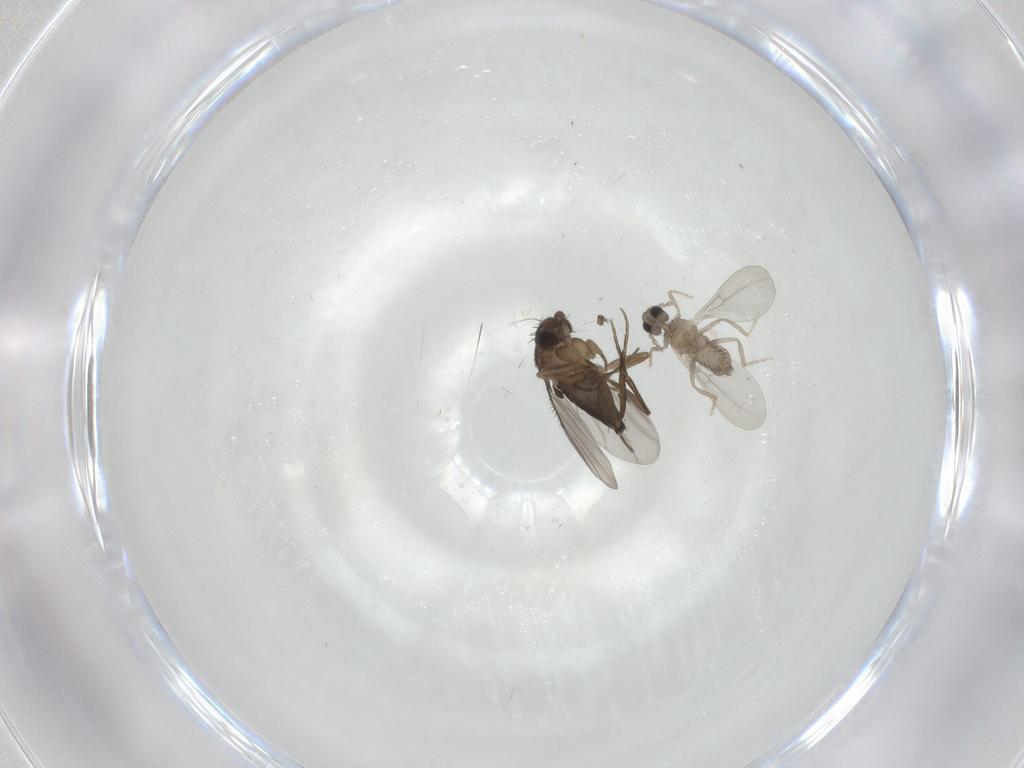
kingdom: Animalia
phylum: Arthropoda
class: Insecta
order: Diptera
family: Phoridae
